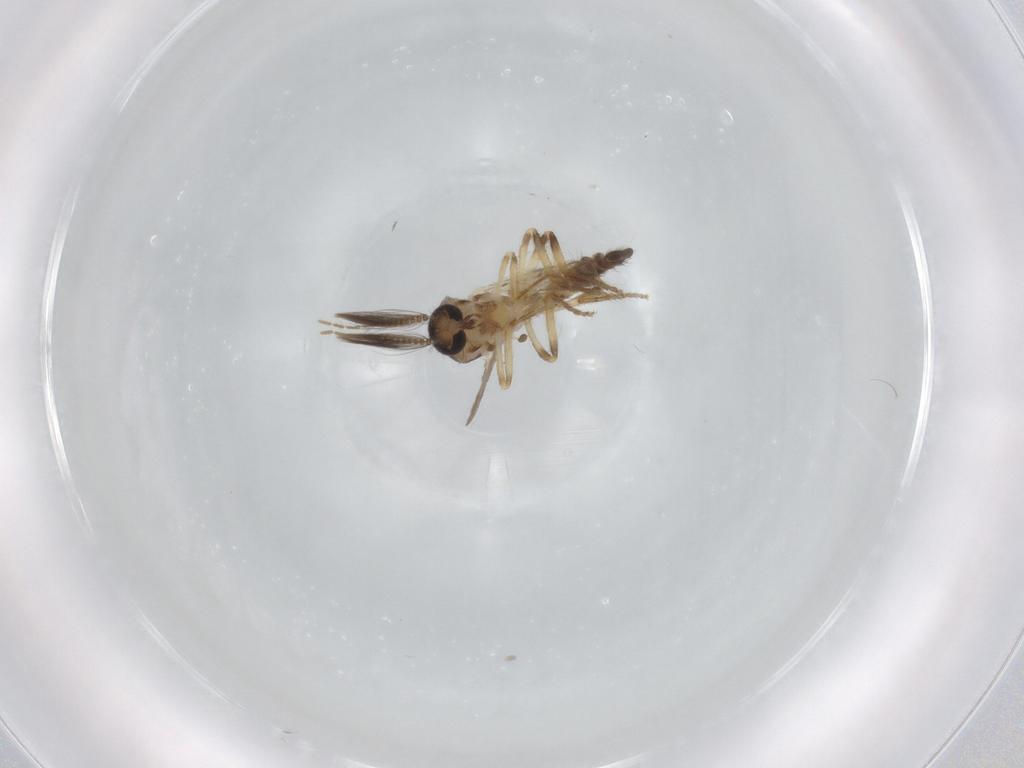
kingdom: Animalia
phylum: Arthropoda
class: Insecta
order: Diptera
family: Ceratopogonidae
